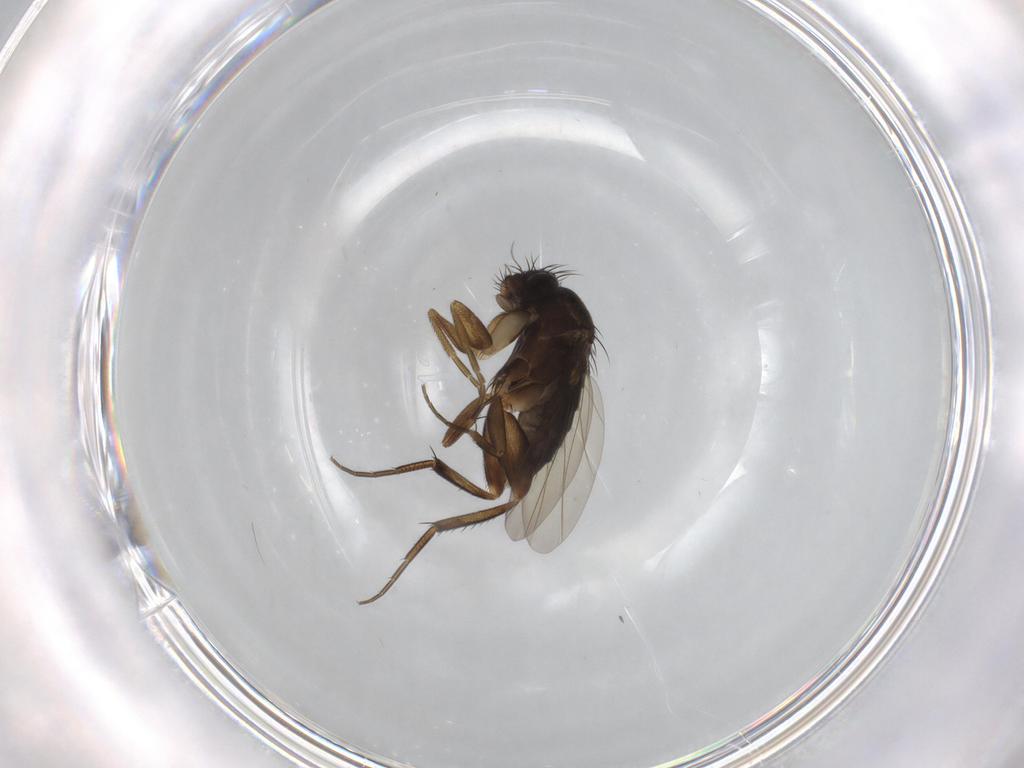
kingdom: Animalia
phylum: Arthropoda
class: Insecta
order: Diptera
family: Phoridae
